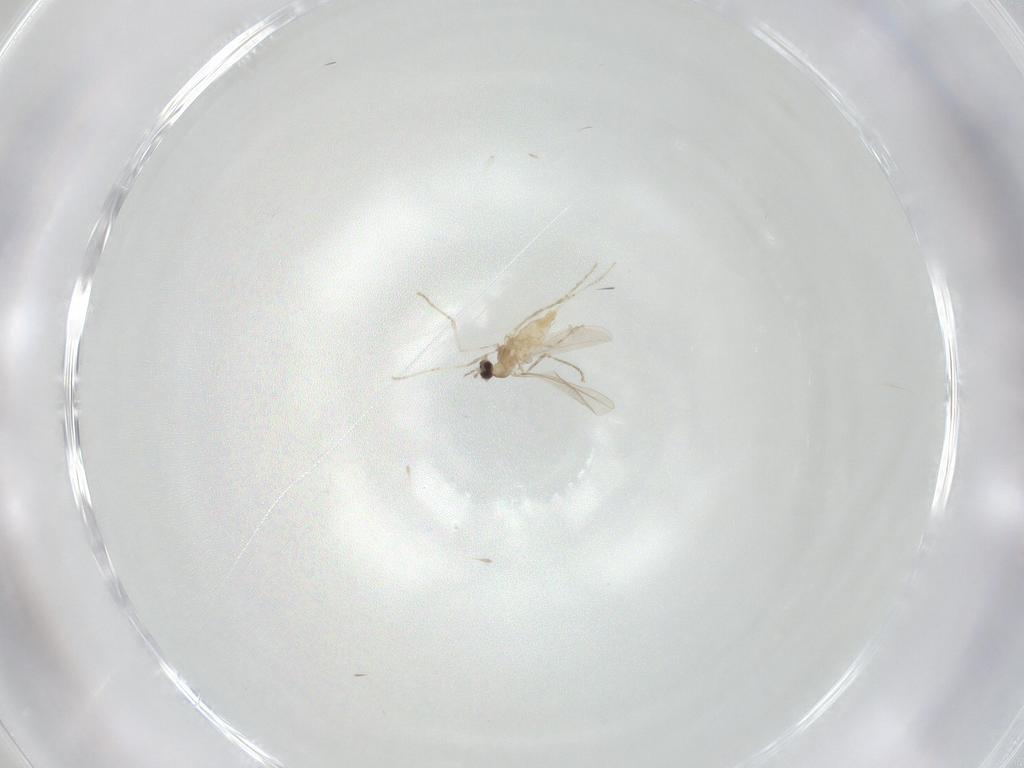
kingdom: Animalia
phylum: Arthropoda
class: Insecta
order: Diptera
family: Cecidomyiidae
